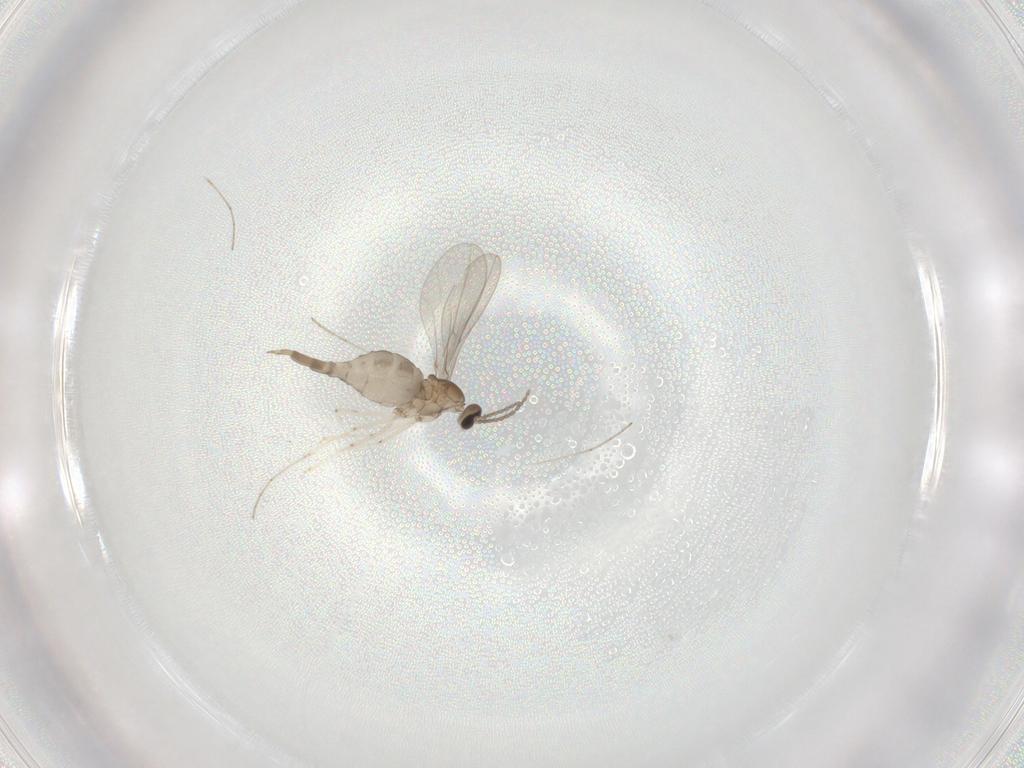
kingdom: Animalia
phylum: Arthropoda
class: Insecta
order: Diptera
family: Cecidomyiidae
